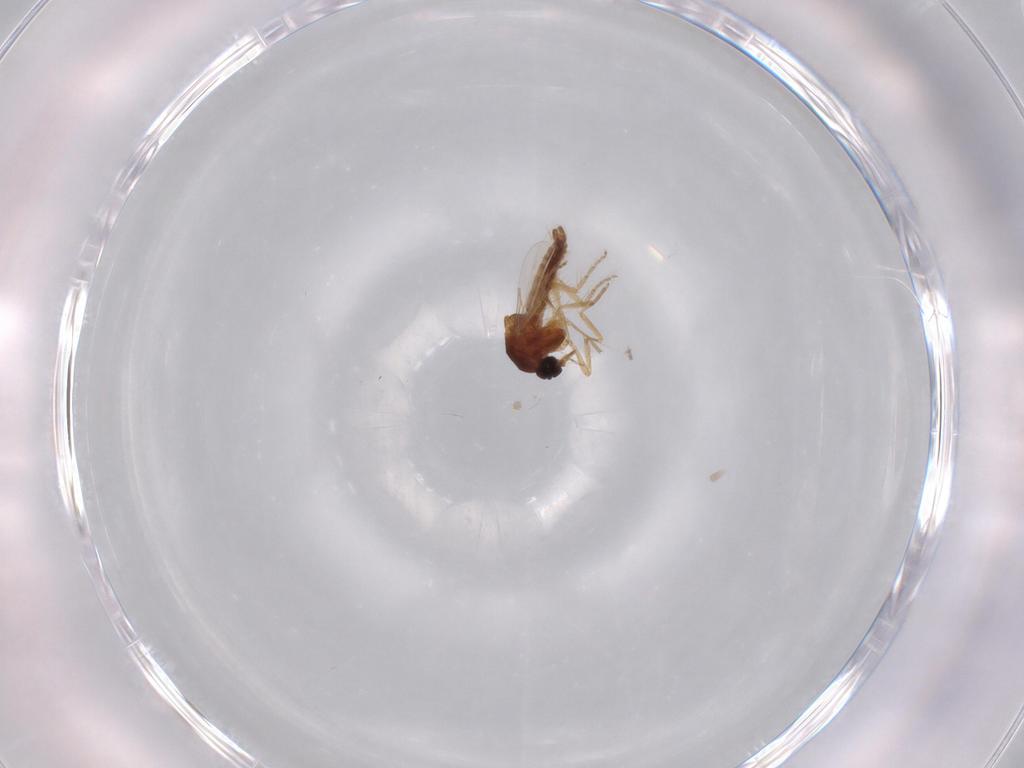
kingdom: Animalia
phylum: Arthropoda
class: Insecta
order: Diptera
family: Ceratopogonidae
